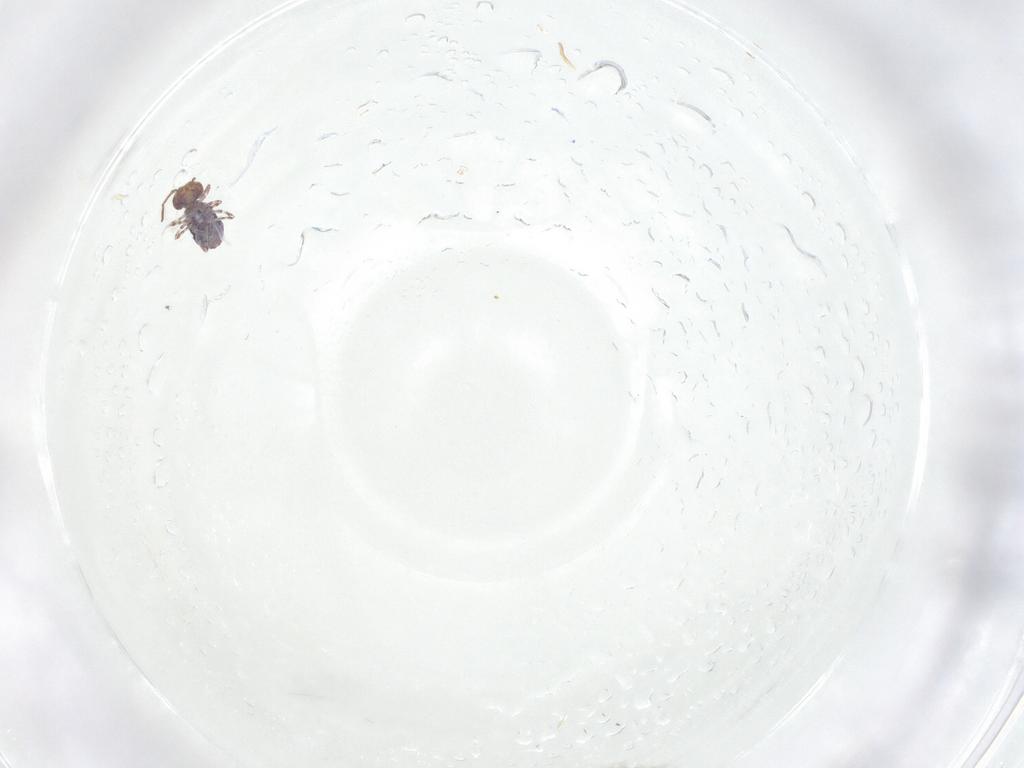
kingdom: Animalia
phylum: Arthropoda
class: Collembola
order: Symphypleona
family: Bourletiellidae
